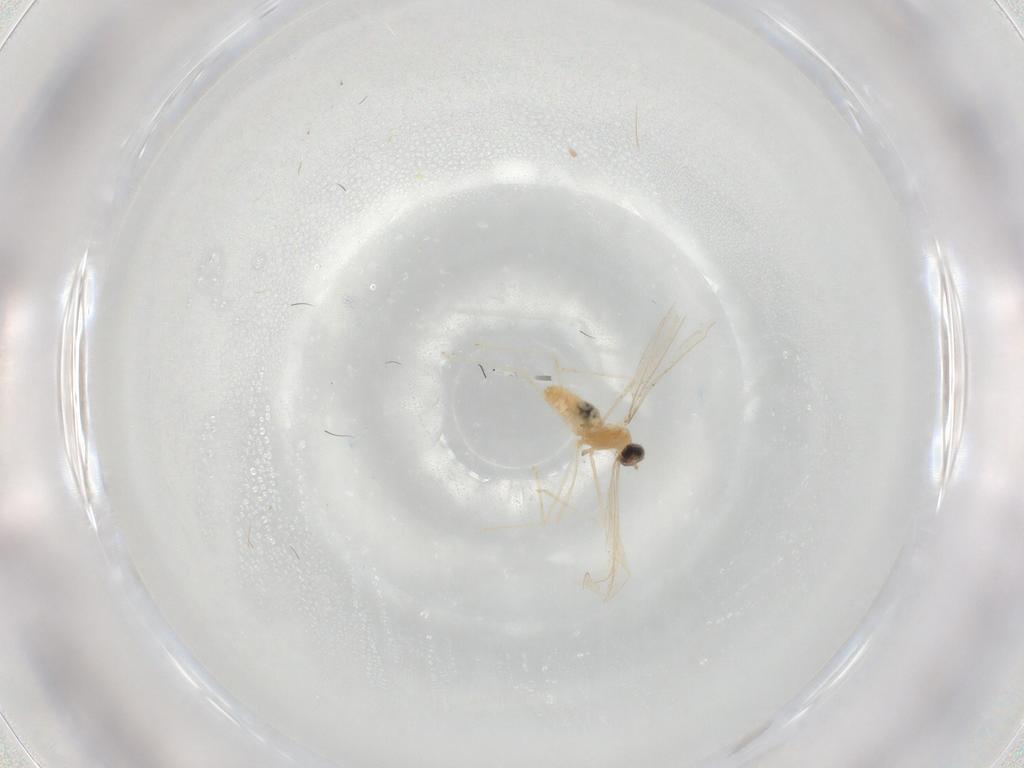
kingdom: Animalia
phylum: Arthropoda
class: Insecta
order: Diptera
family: Cecidomyiidae
